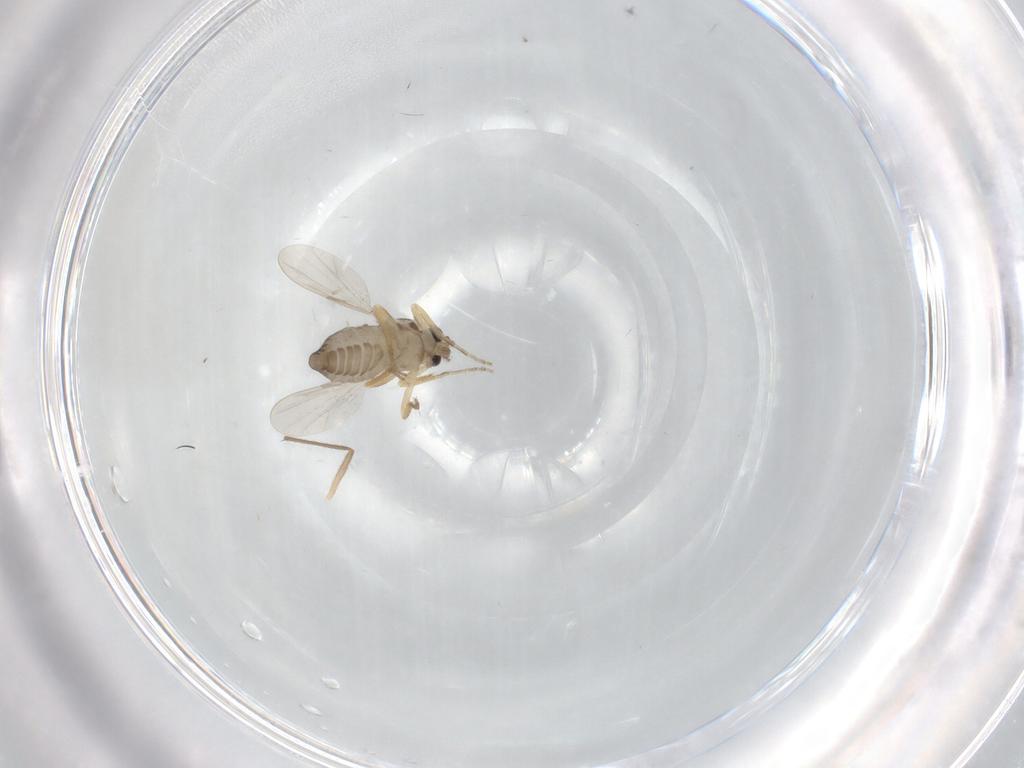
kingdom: Animalia
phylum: Arthropoda
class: Insecta
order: Diptera
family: Ceratopogonidae
